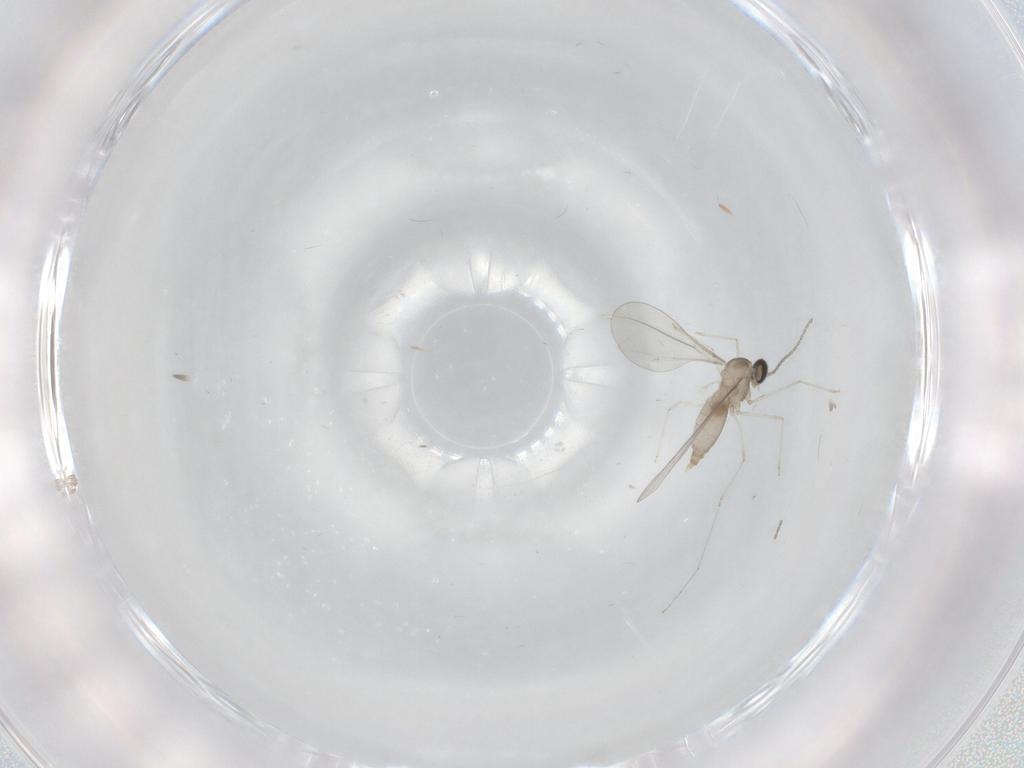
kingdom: Animalia
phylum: Arthropoda
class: Insecta
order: Diptera
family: Cecidomyiidae
